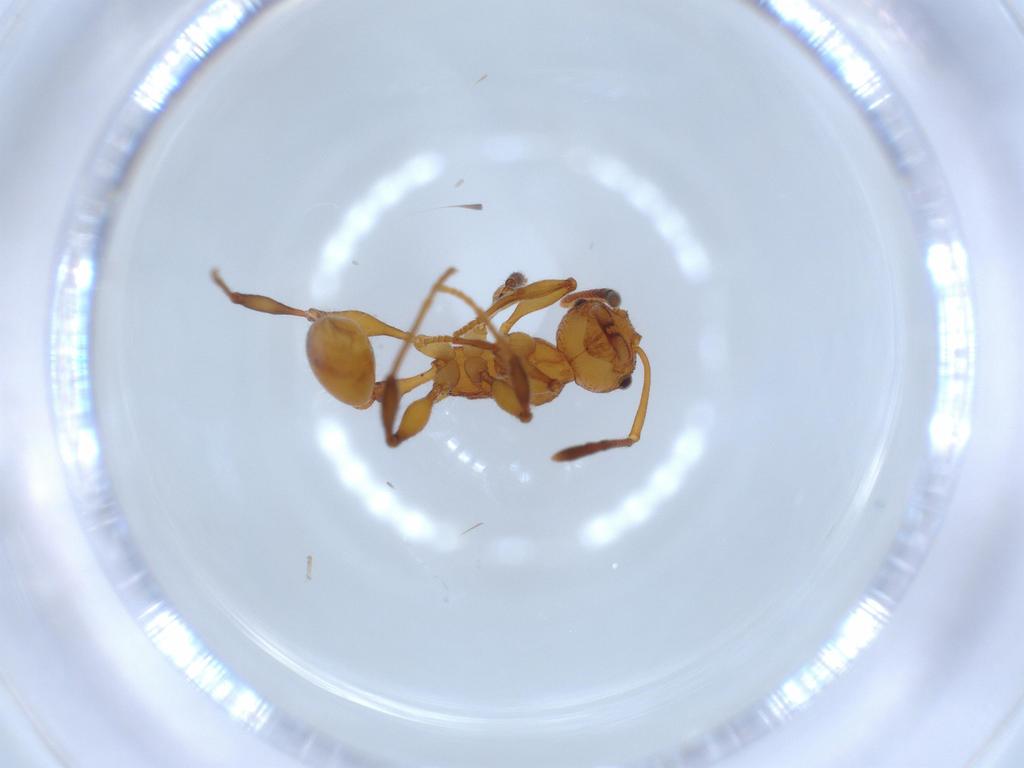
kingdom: Animalia
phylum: Arthropoda
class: Insecta
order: Hymenoptera
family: Formicidae
